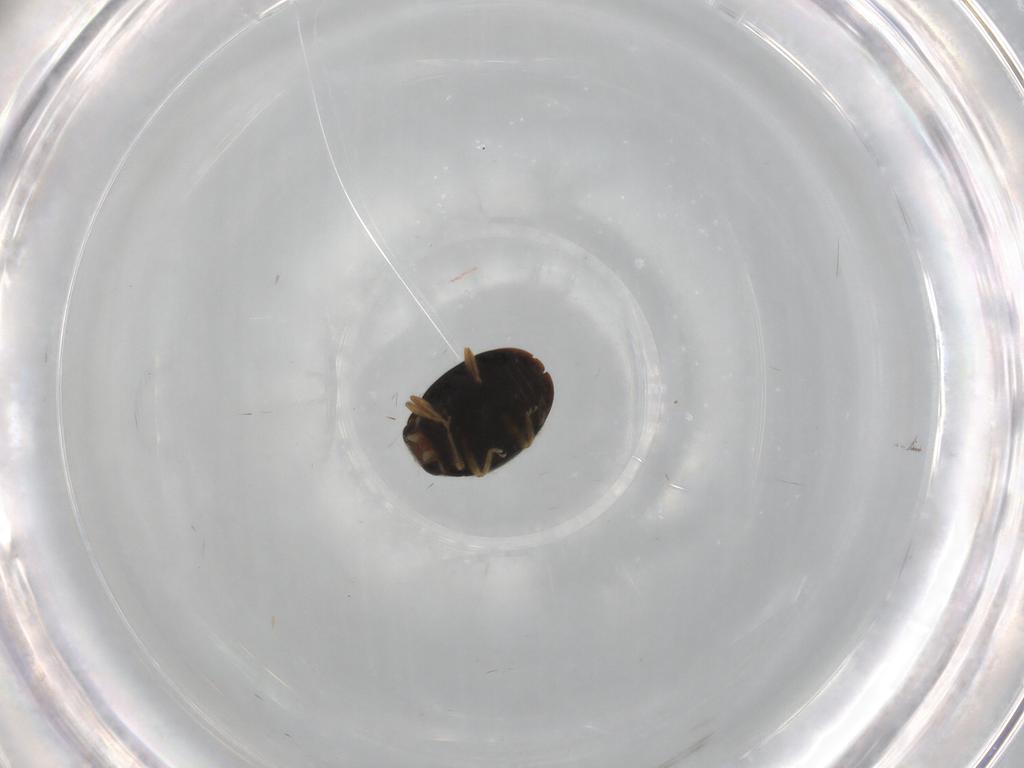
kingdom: Animalia
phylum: Arthropoda
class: Insecta
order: Coleoptera
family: Coccinellidae
